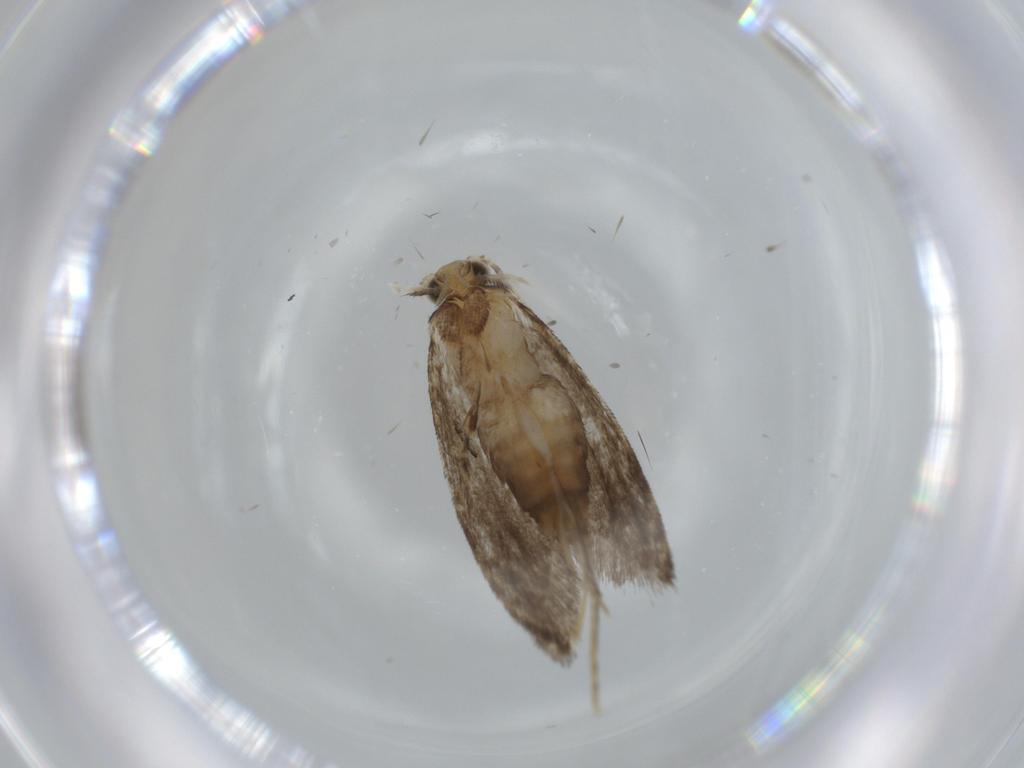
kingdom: Animalia
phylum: Arthropoda
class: Insecta
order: Lepidoptera
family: Tineidae
